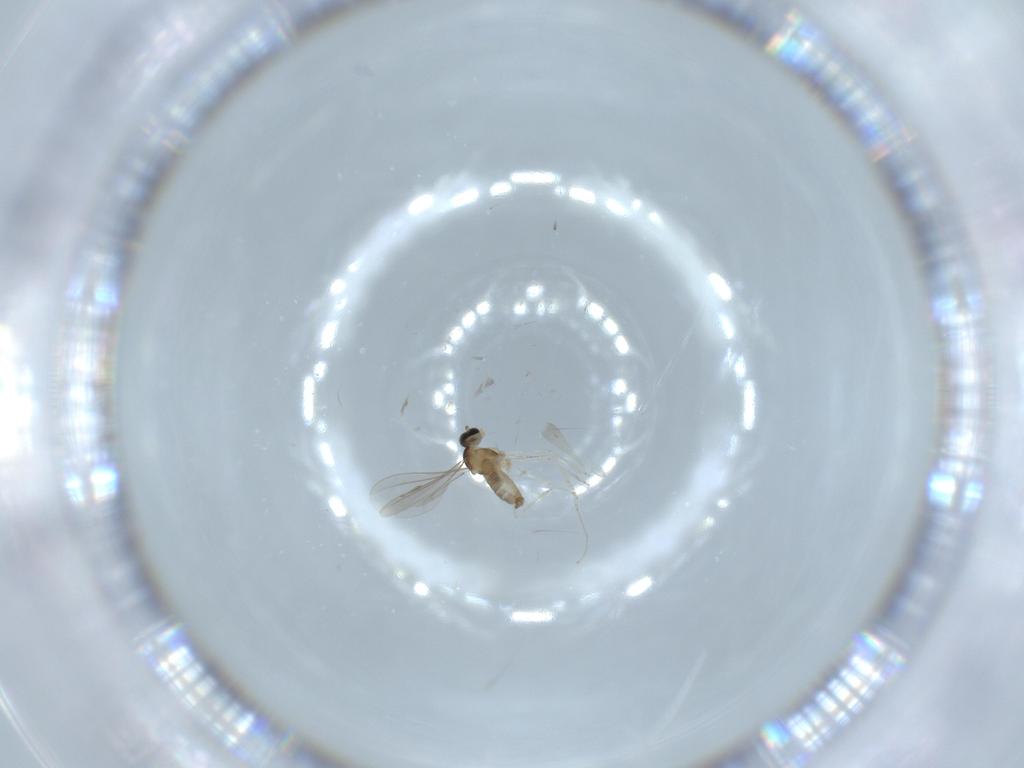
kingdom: Animalia
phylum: Arthropoda
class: Insecta
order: Diptera
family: Cecidomyiidae
